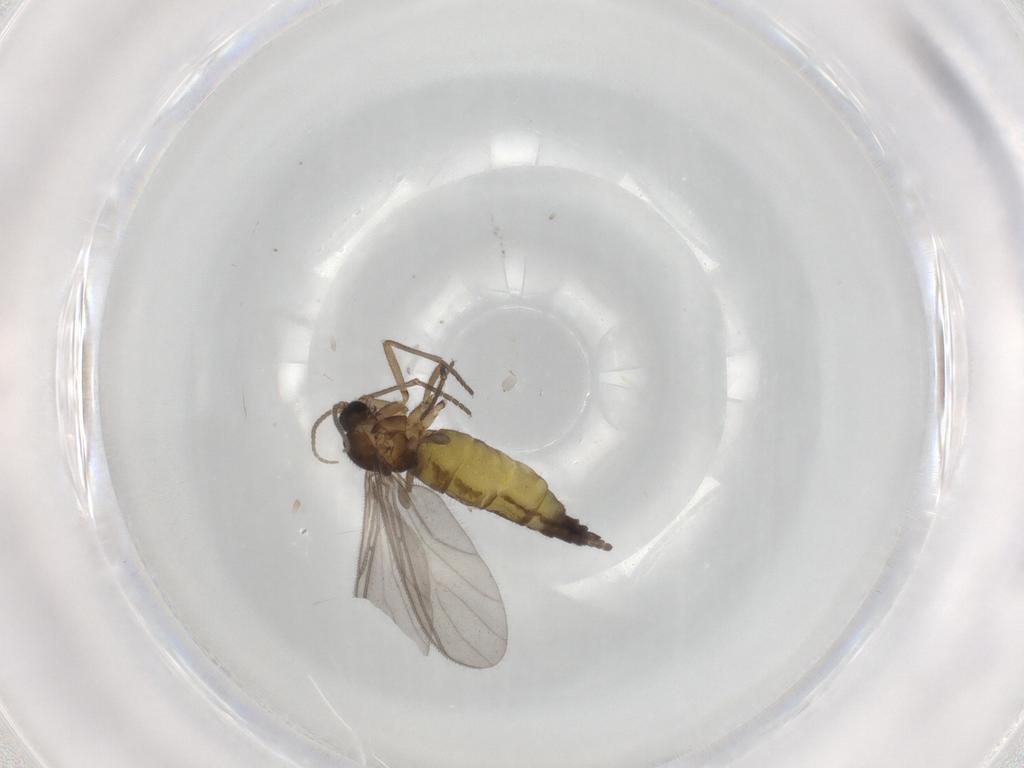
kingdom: Animalia
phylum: Arthropoda
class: Insecta
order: Diptera
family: Sciaridae
